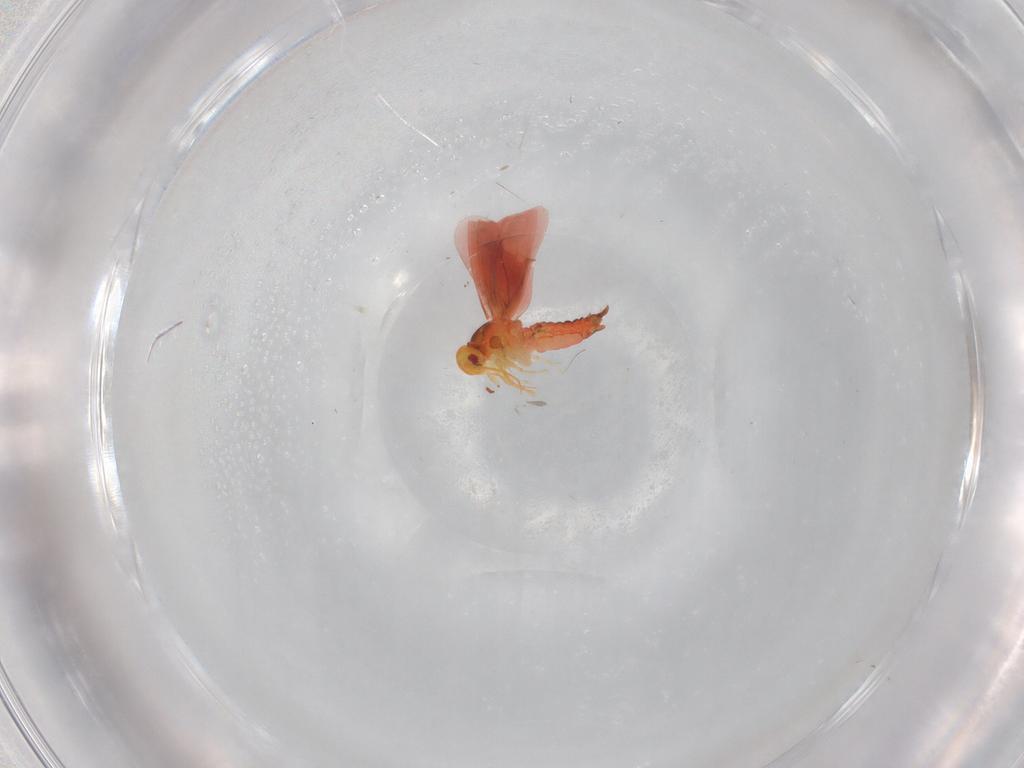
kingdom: Animalia
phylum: Arthropoda
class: Insecta
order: Hemiptera
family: Aleyrodidae
